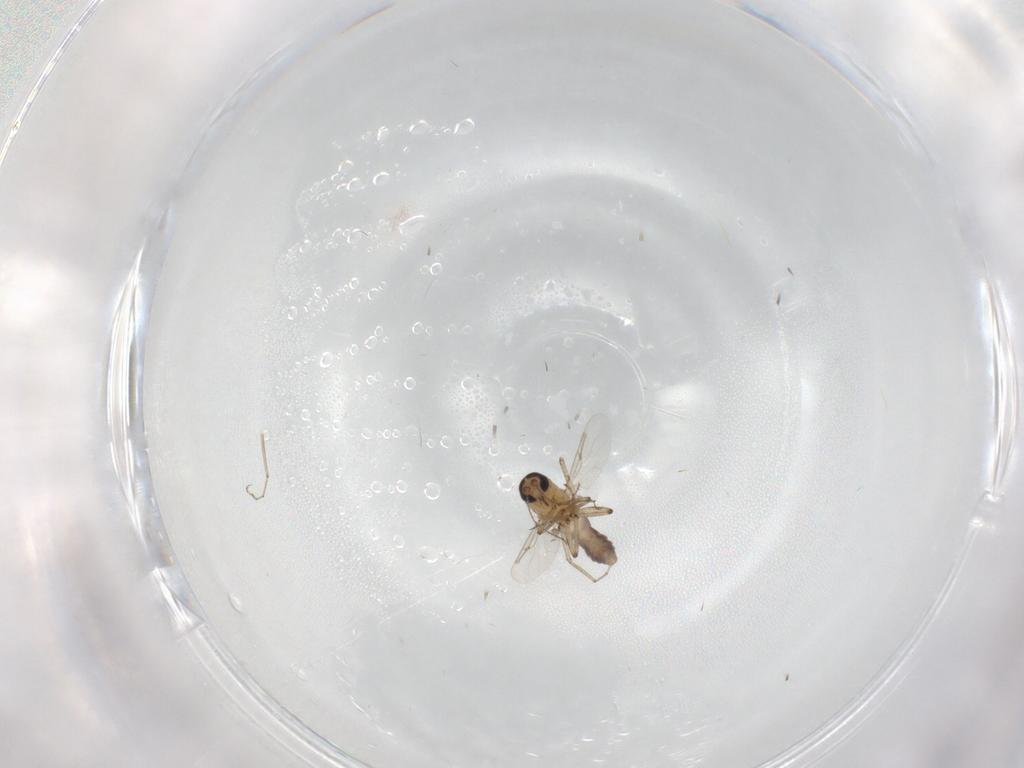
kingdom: Animalia
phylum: Arthropoda
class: Insecta
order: Diptera
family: Ceratopogonidae
